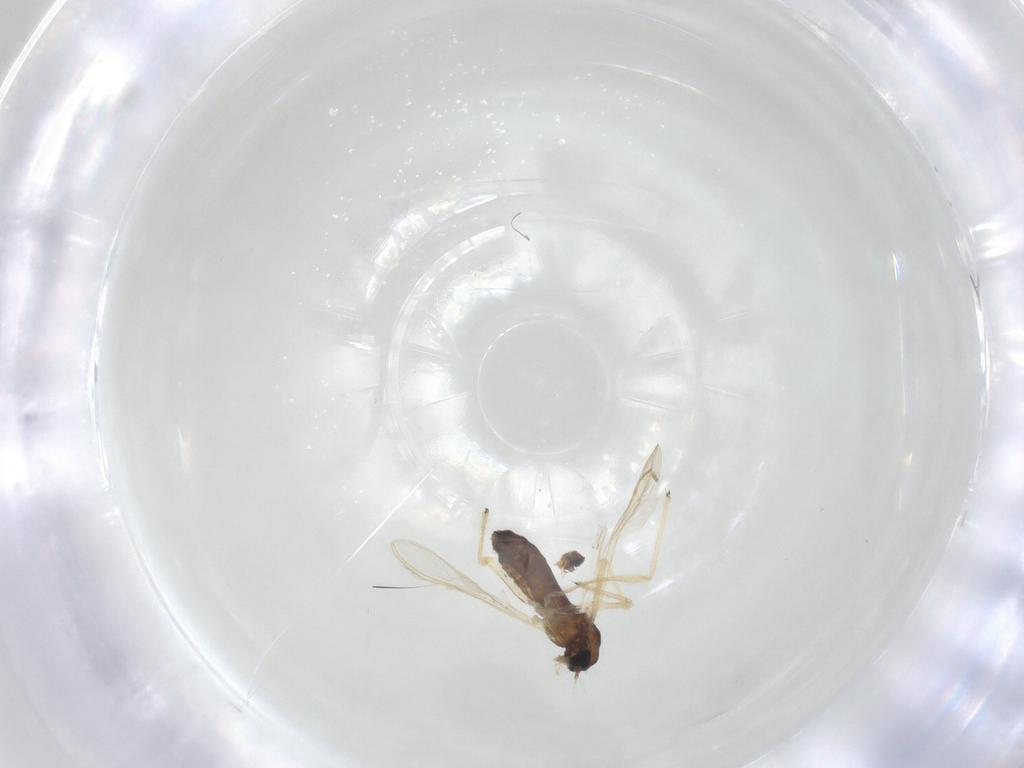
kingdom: Animalia
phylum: Arthropoda
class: Insecta
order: Diptera
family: Chironomidae
